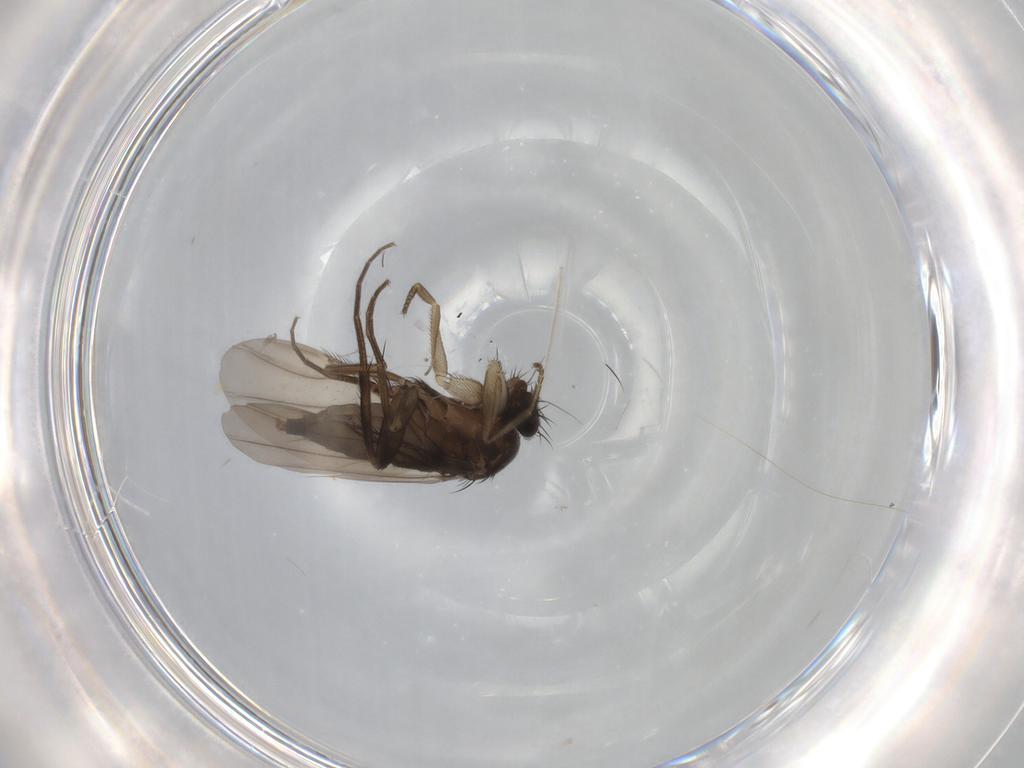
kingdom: Animalia
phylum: Arthropoda
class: Insecta
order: Diptera
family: Phoridae
